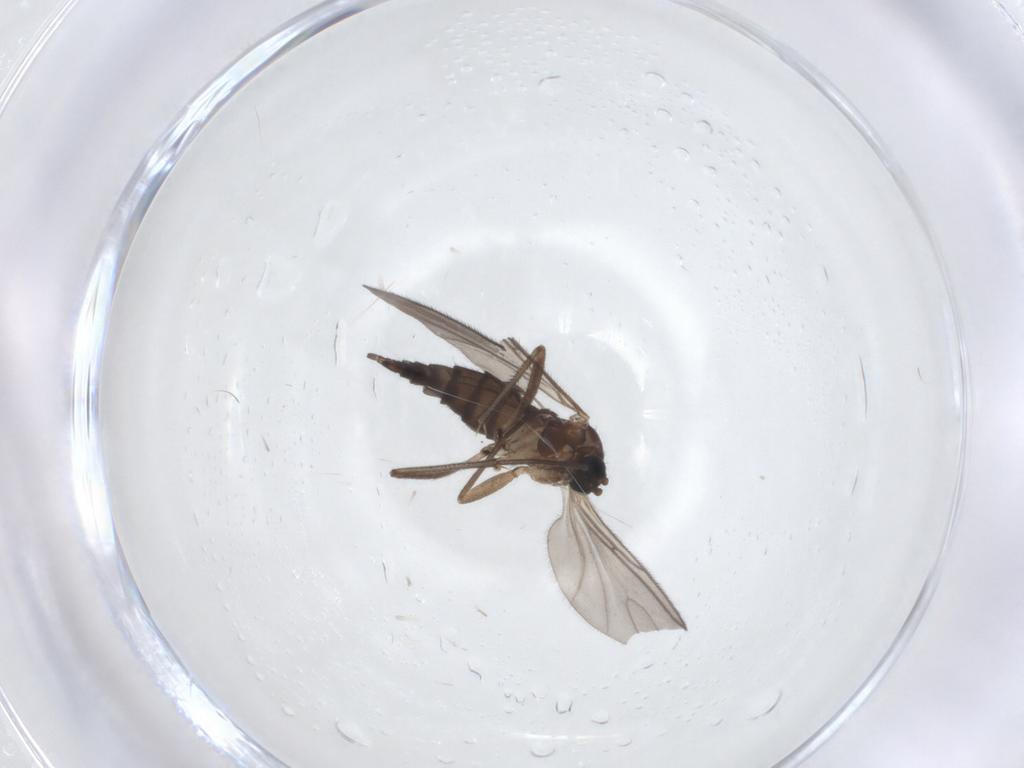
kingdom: Animalia
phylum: Arthropoda
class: Insecta
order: Diptera
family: Sciaridae
